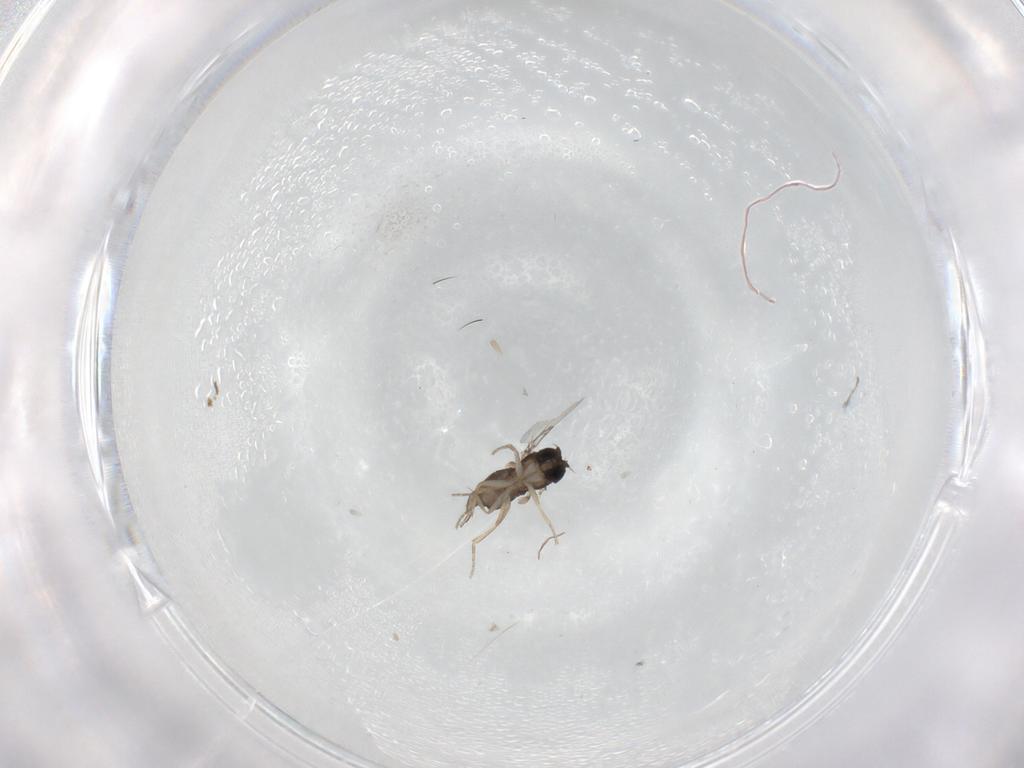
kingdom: Animalia
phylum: Arthropoda
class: Insecta
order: Diptera
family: Phoridae
